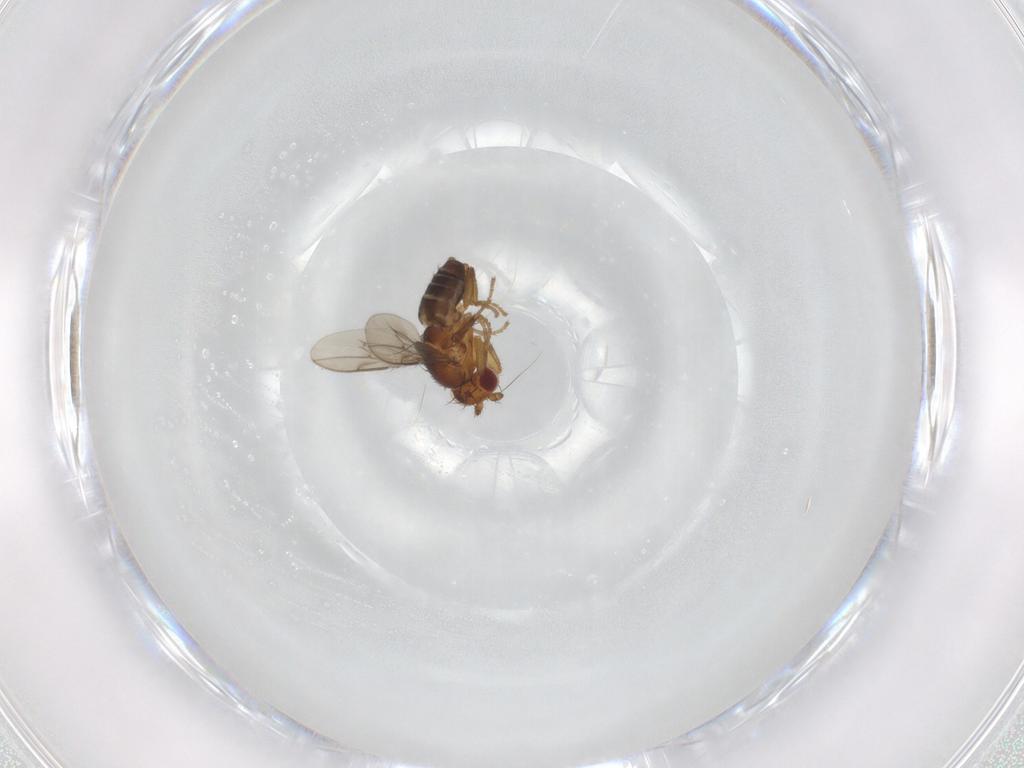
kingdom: Animalia
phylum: Arthropoda
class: Insecta
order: Diptera
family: Sphaeroceridae
